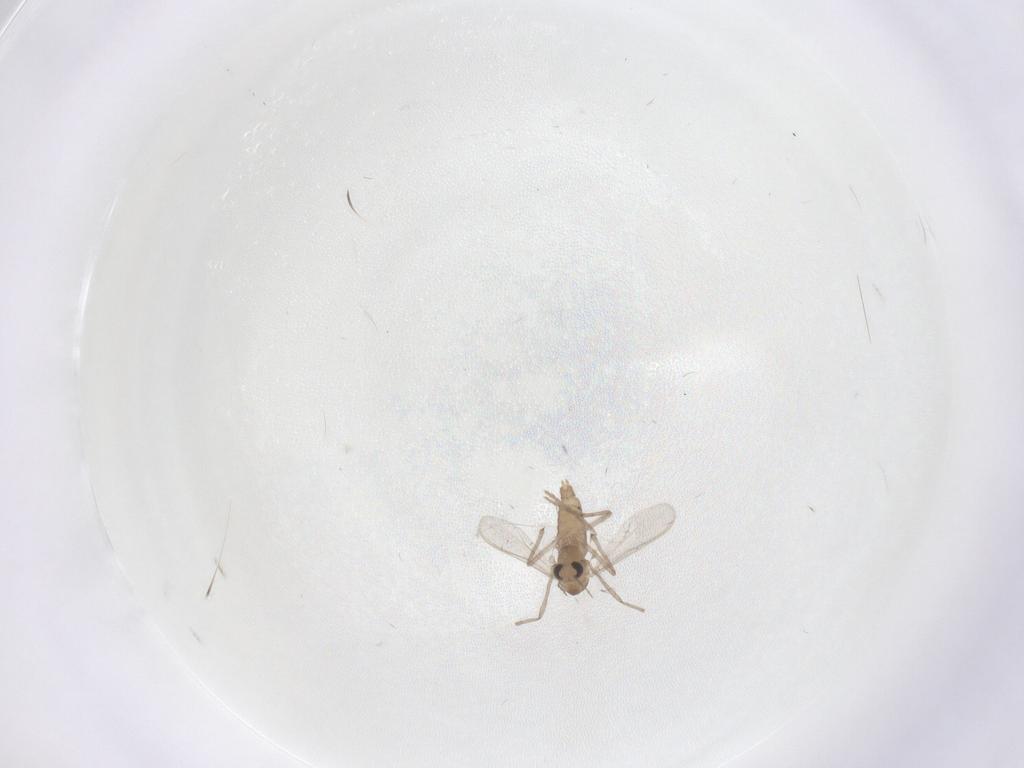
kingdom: Animalia
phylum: Arthropoda
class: Insecta
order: Diptera
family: Chironomidae
